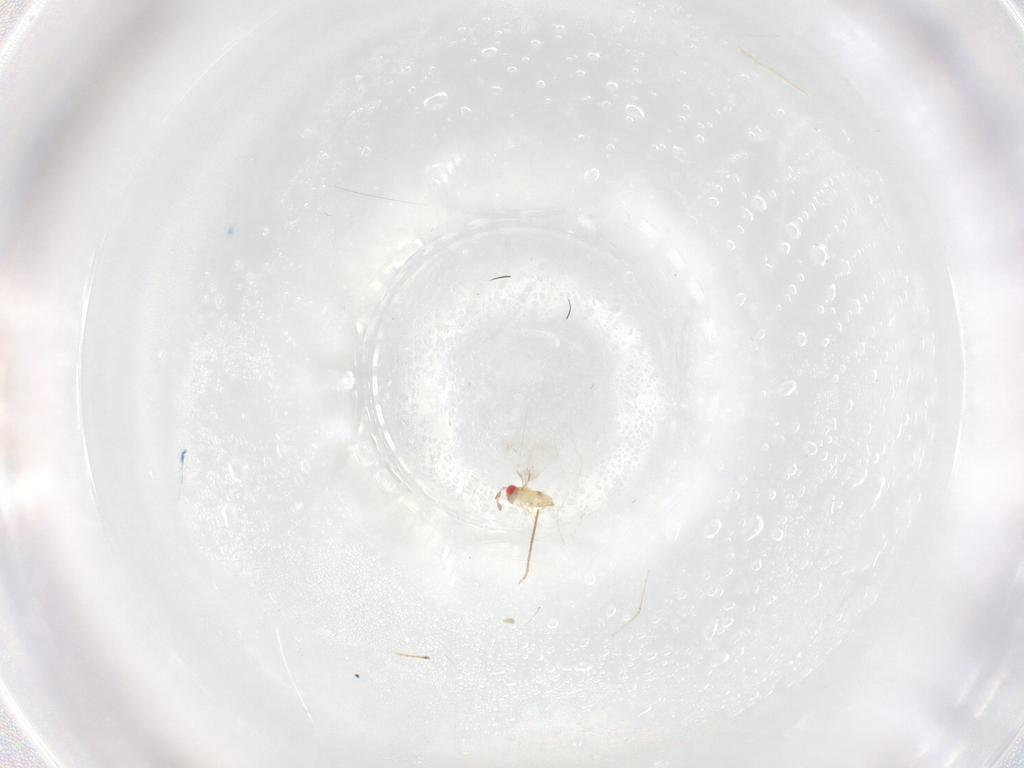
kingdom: Animalia
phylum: Arthropoda
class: Insecta
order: Hymenoptera
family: Braconidae
